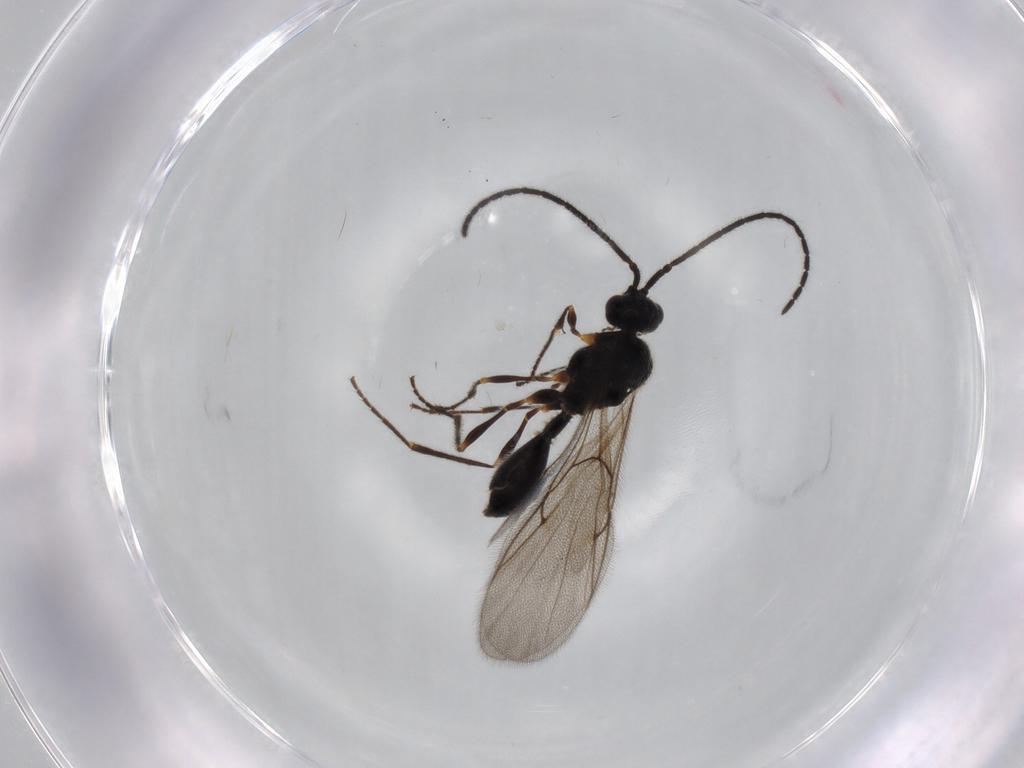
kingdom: Animalia
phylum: Arthropoda
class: Insecta
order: Hymenoptera
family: Diapriidae
